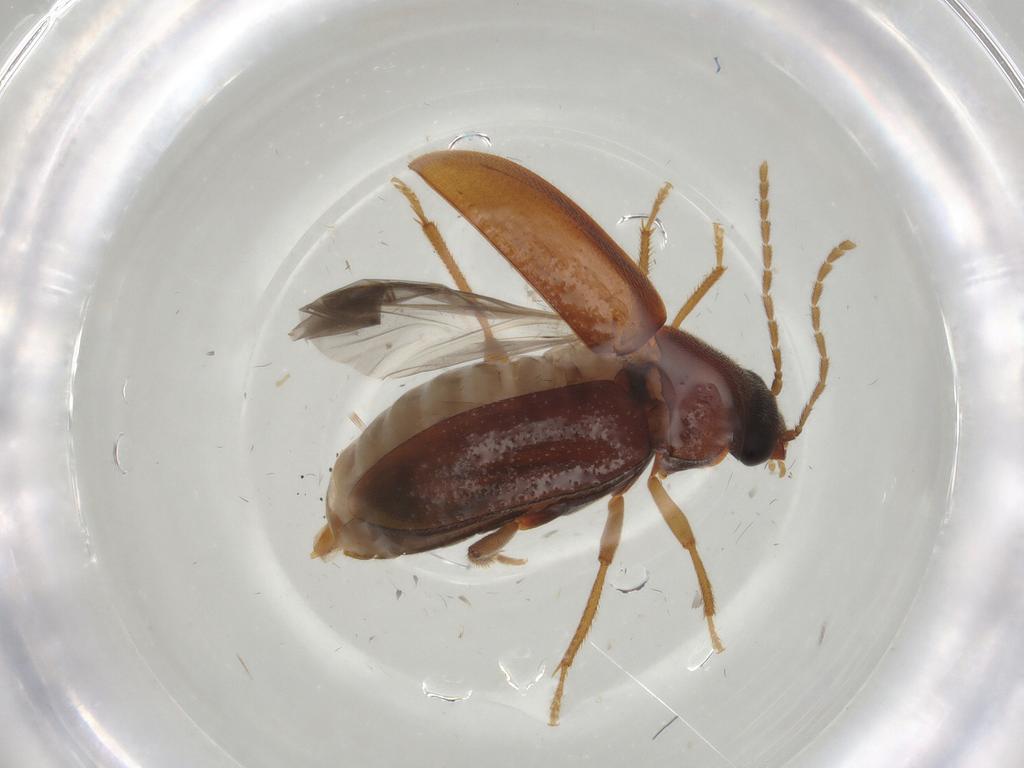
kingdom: Animalia
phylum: Arthropoda
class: Insecta
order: Coleoptera
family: Ptilodactylidae
